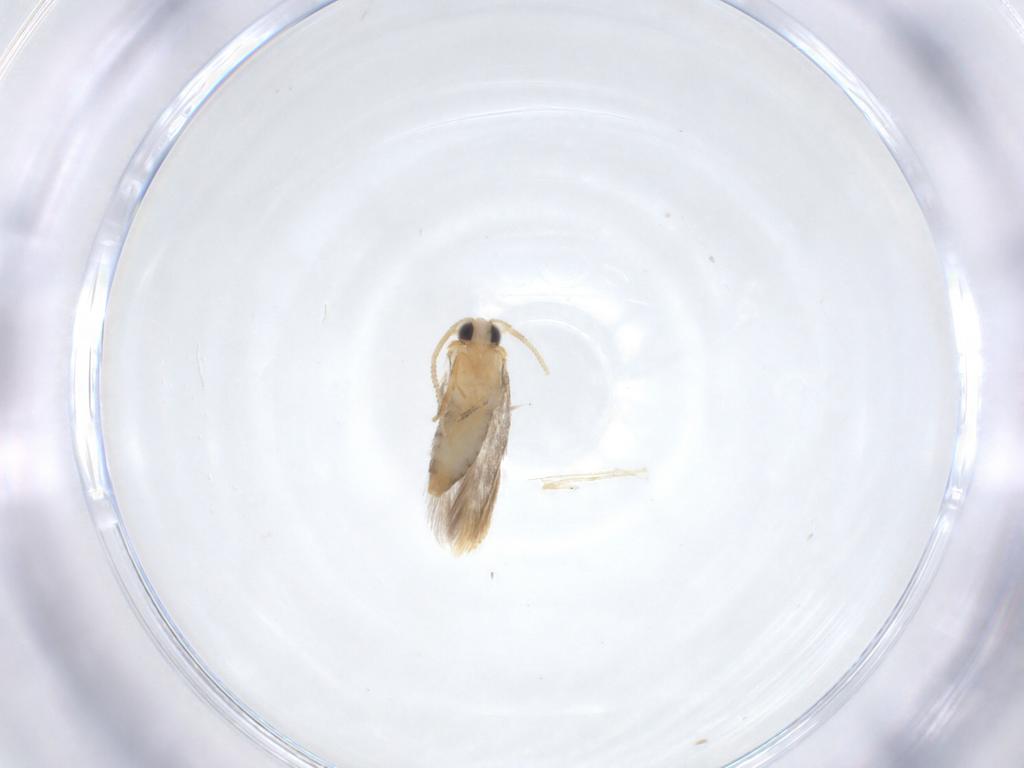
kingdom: Animalia
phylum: Arthropoda
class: Insecta
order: Lepidoptera
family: Nepticulidae
